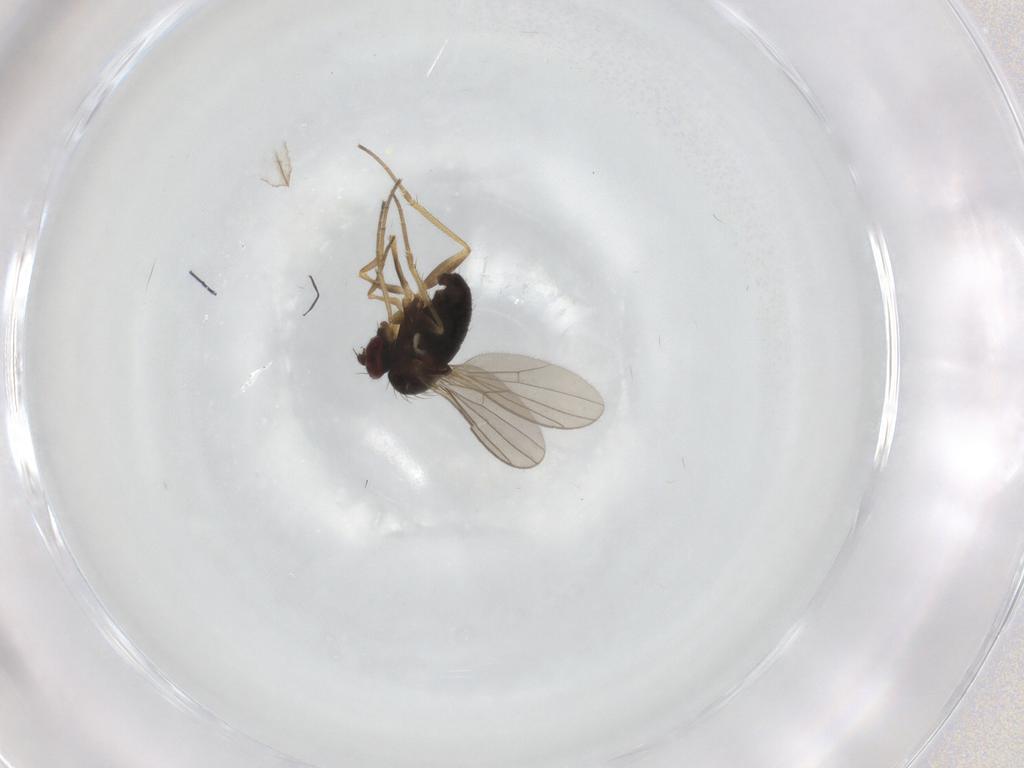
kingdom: Animalia
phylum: Arthropoda
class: Insecta
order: Diptera
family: Dolichopodidae
